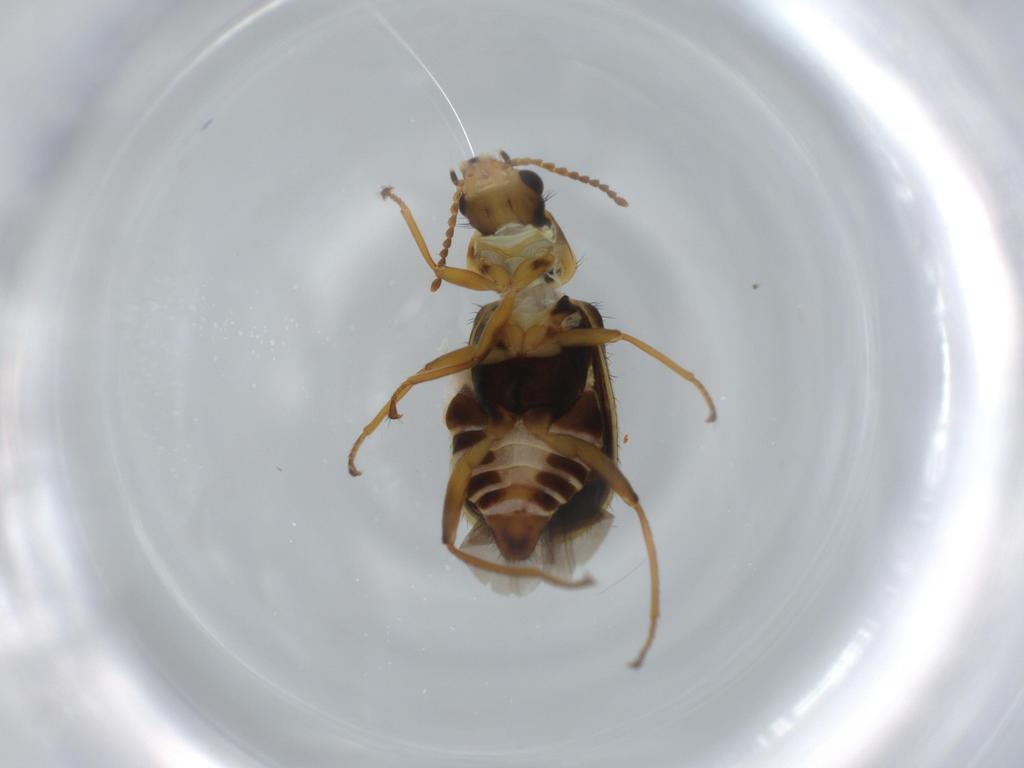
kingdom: Animalia
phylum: Arthropoda
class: Insecta
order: Coleoptera
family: Melyridae
